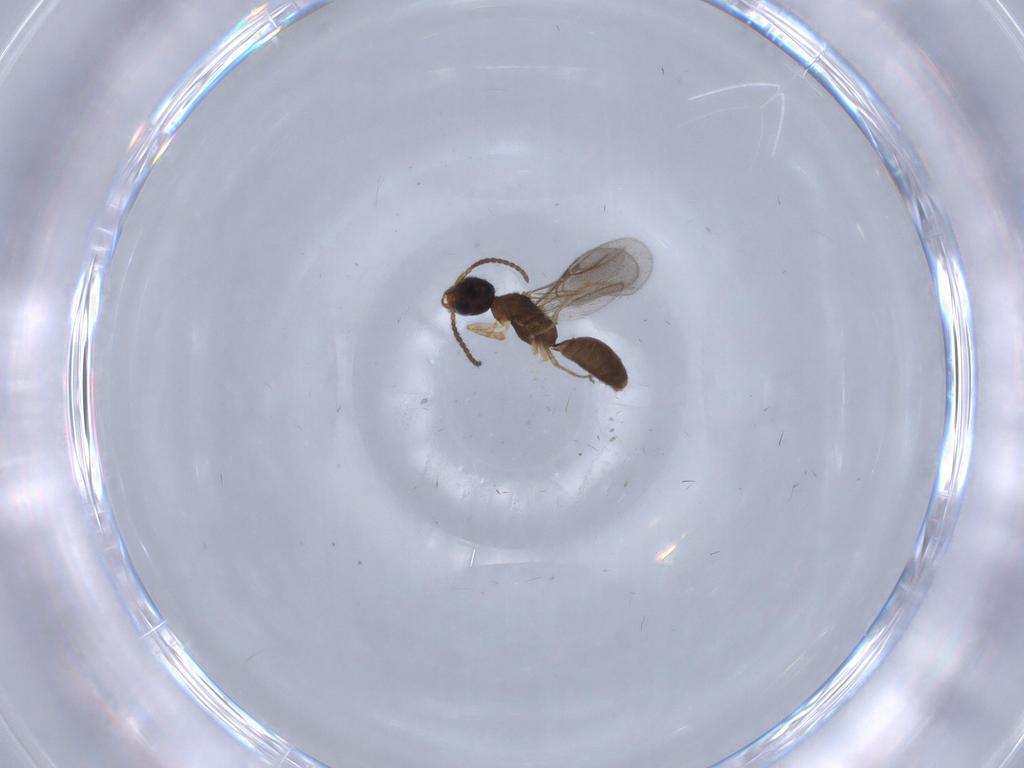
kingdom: Animalia
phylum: Arthropoda
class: Insecta
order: Hymenoptera
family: Bethylidae
